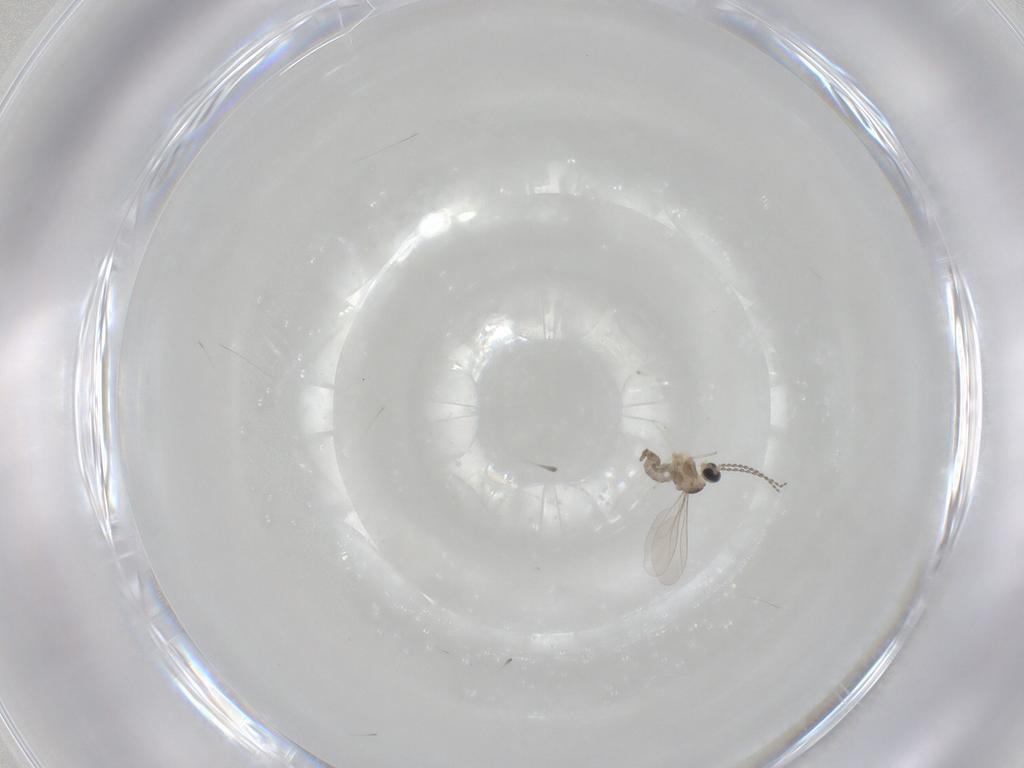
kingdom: Animalia
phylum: Arthropoda
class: Insecta
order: Diptera
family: Cecidomyiidae
